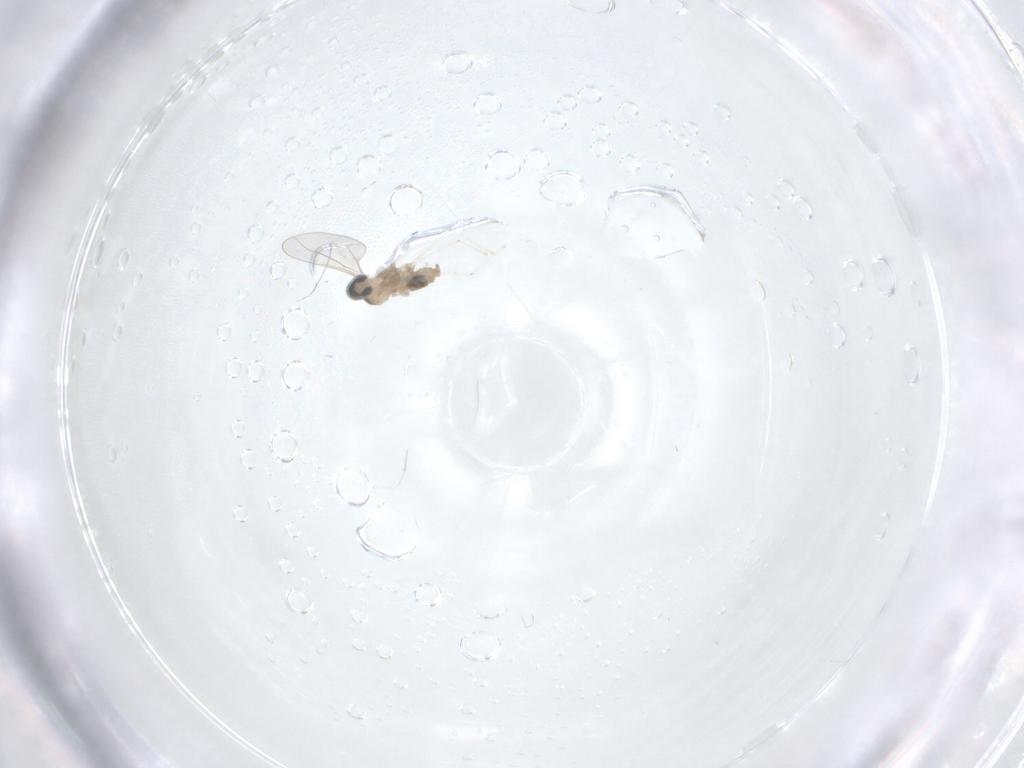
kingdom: Animalia
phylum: Arthropoda
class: Insecta
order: Diptera
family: Cecidomyiidae
